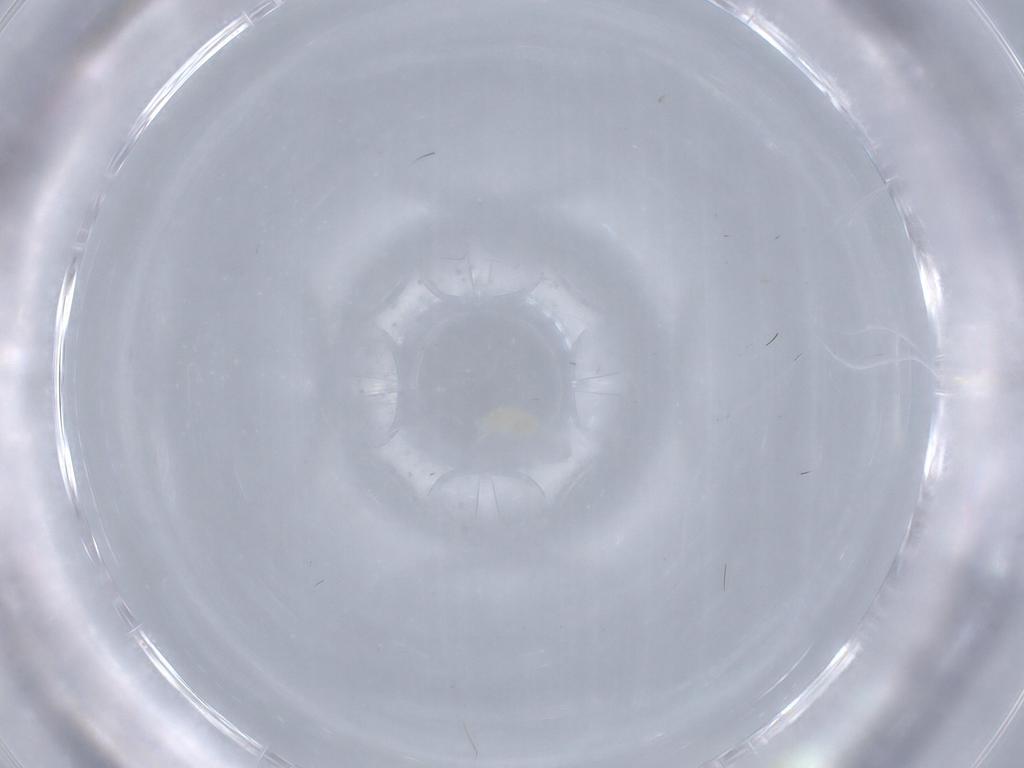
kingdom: Animalia
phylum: Arthropoda
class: Arachnida
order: Trombidiformes
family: Eupodidae
